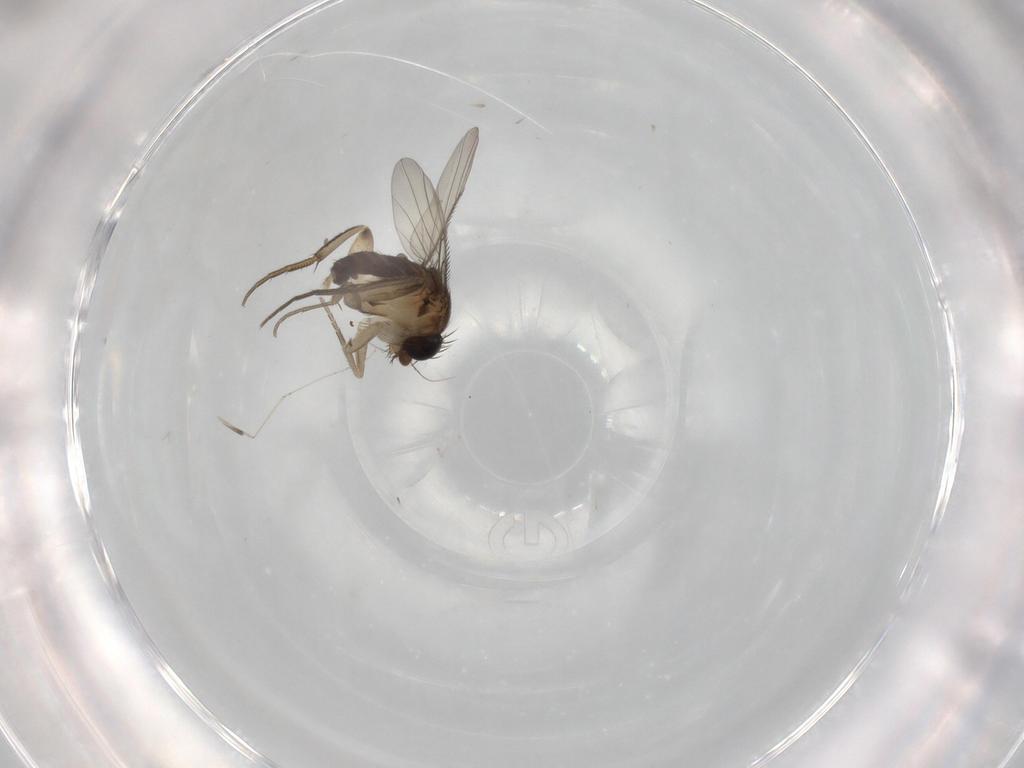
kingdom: Animalia
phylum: Arthropoda
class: Insecta
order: Diptera
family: Phoridae
